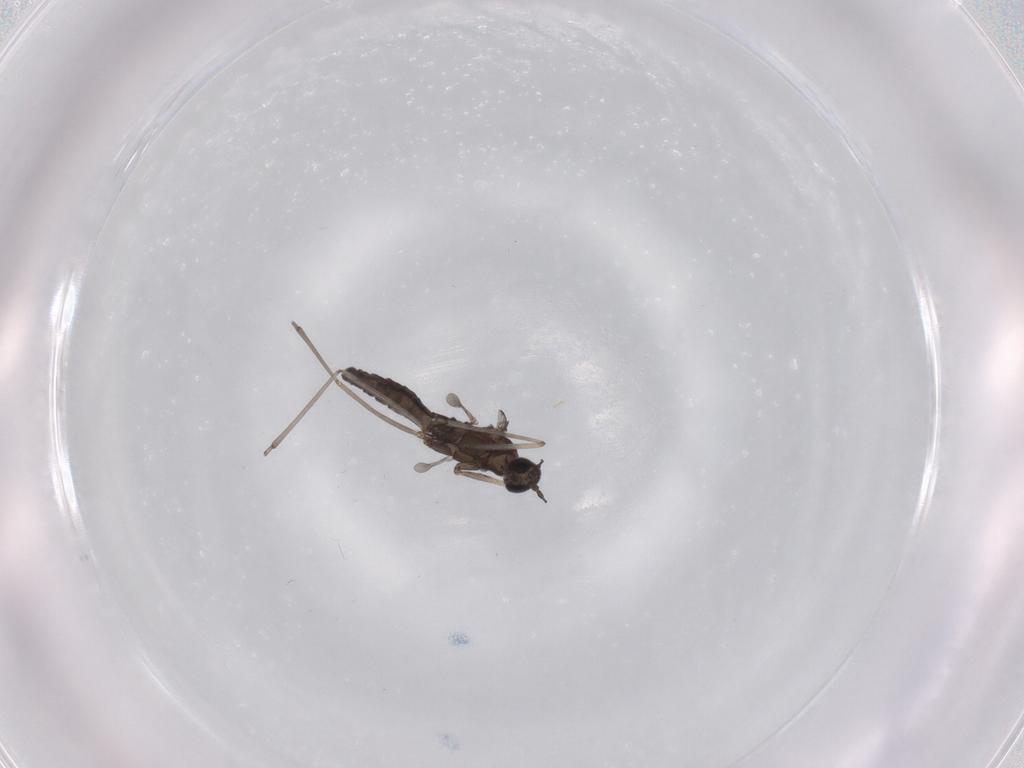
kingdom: Animalia
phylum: Arthropoda
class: Insecta
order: Diptera
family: Cecidomyiidae
